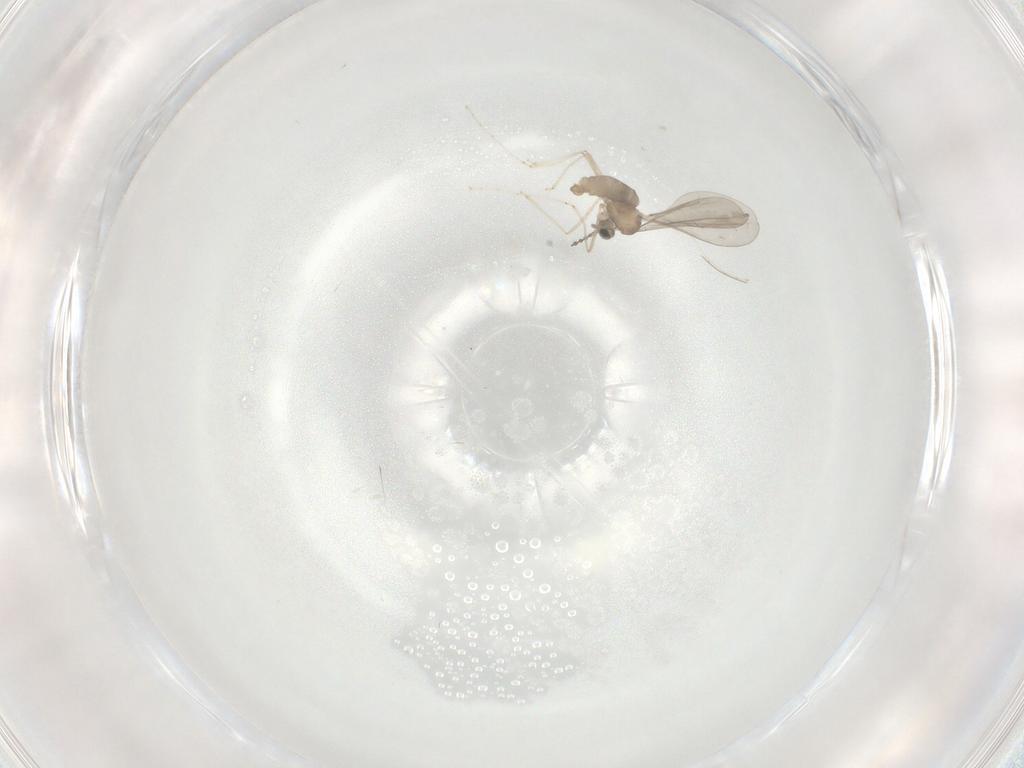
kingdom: Animalia
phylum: Arthropoda
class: Insecta
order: Diptera
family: Cecidomyiidae
